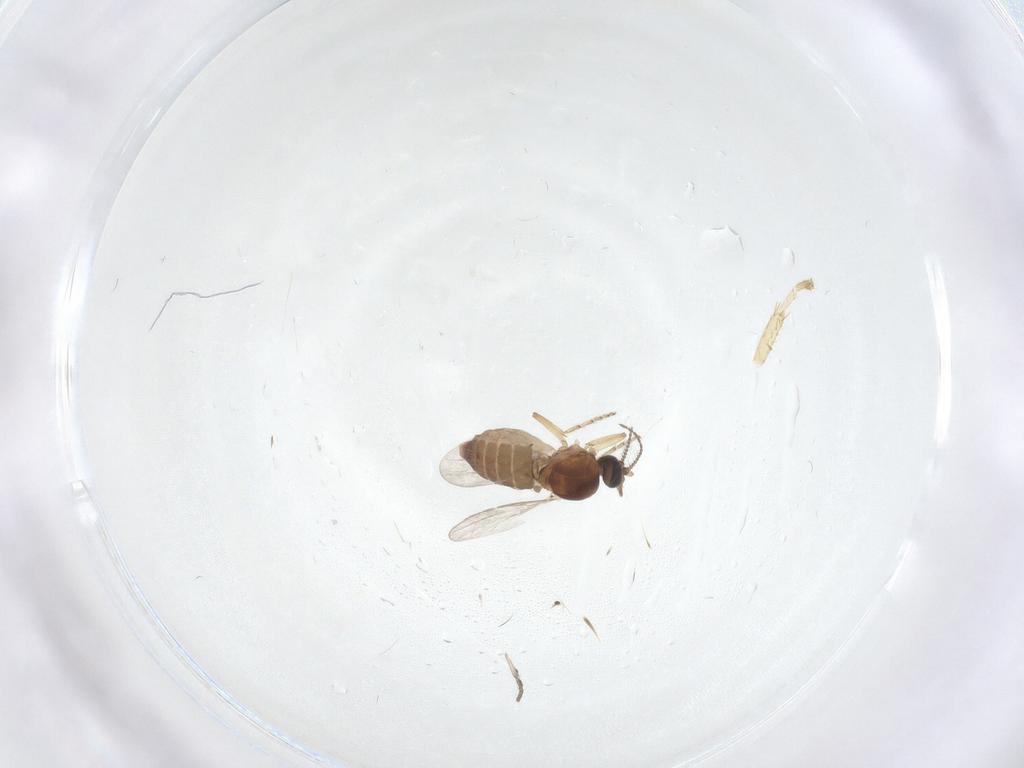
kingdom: Animalia
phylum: Arthropoda
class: Insecta
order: Diptera
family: Ceratopogonidae
